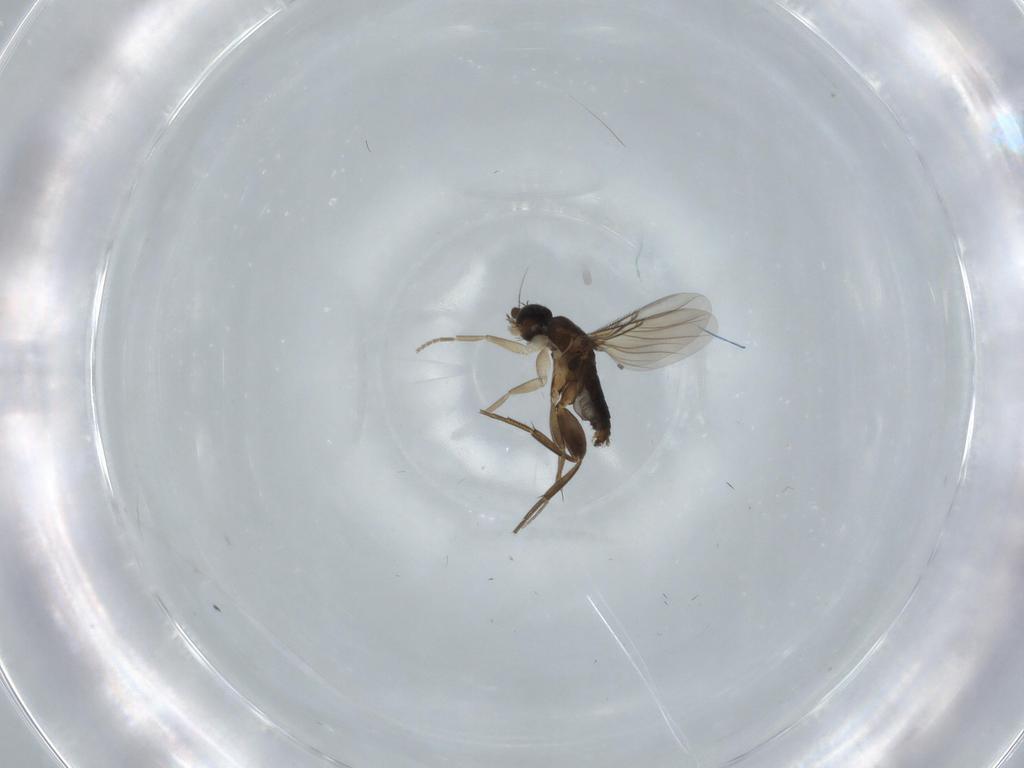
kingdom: Animalia
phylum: Arthropoda
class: Insecta
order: Diptera
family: Phoridae
